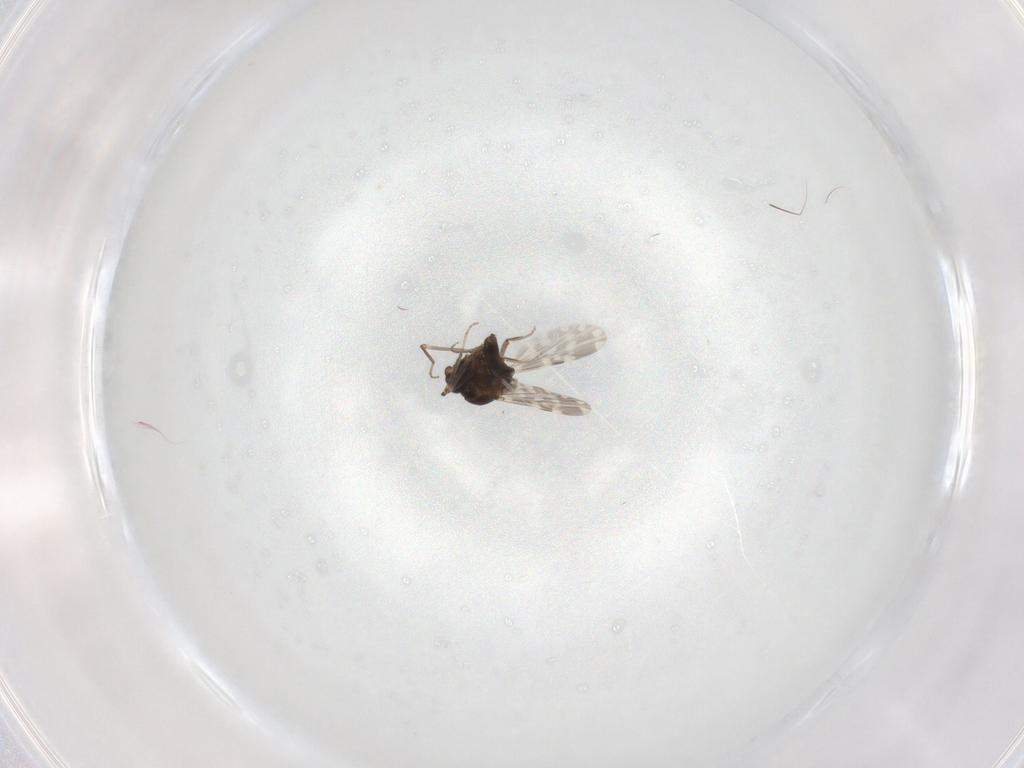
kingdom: Animalia
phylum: Arthropoda
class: Insecta
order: Diptera
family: Ceratopogonidae
